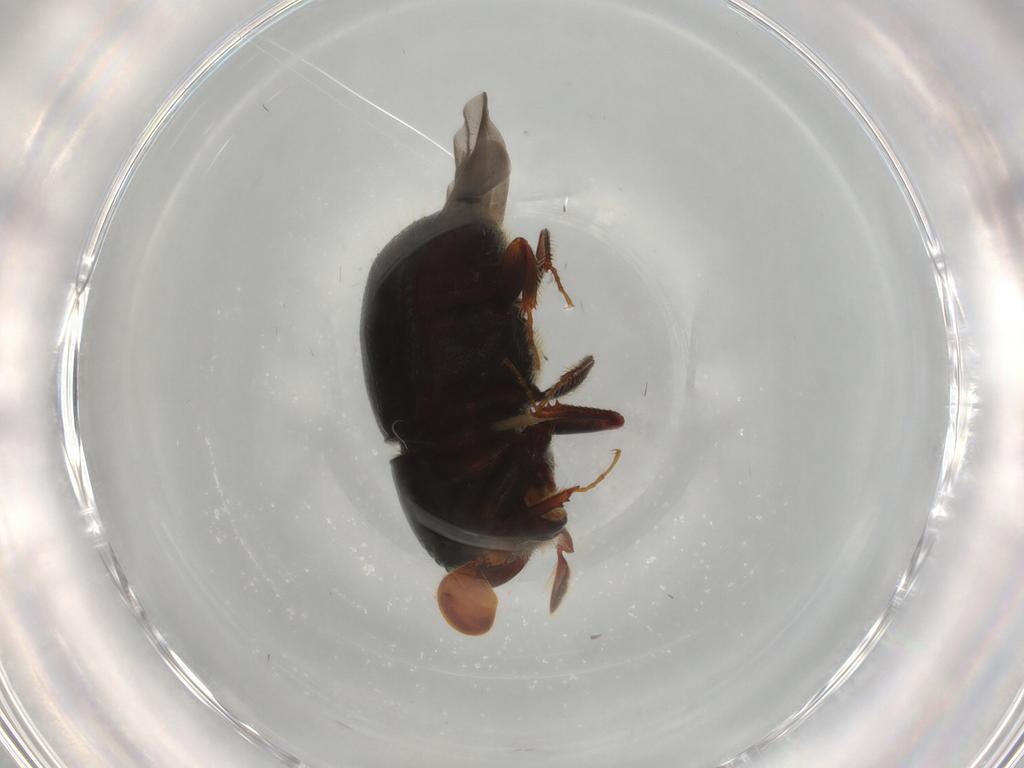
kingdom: Animalia
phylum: Arthropoda
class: Insecta
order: Coleoptera
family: Curculionidae
